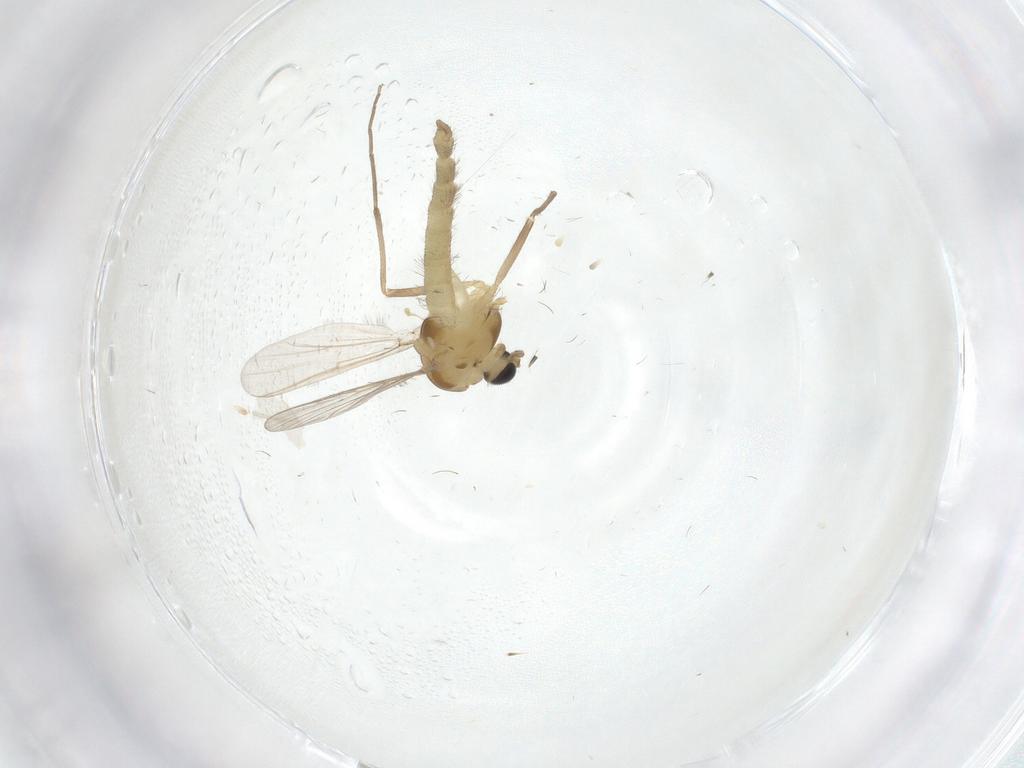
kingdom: Animalia
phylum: Arthropoda
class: Insecta
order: Diptera
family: Chironomidae
